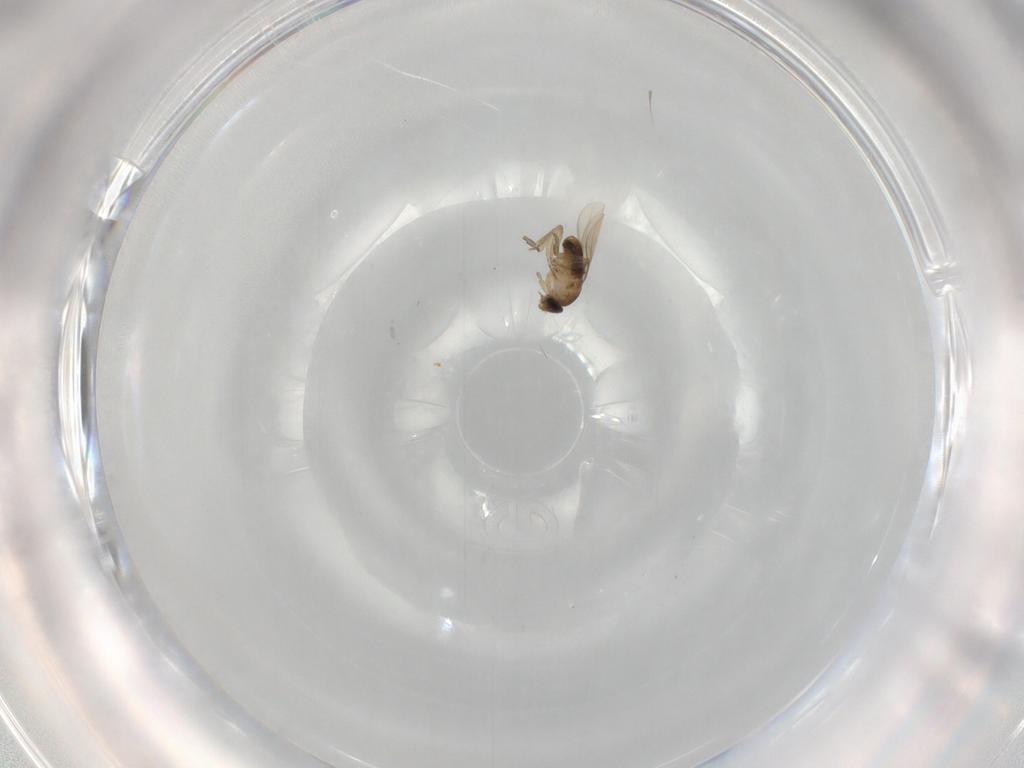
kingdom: Animalia
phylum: Arthropoda
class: Insecta
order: Diptera
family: Phoridae
